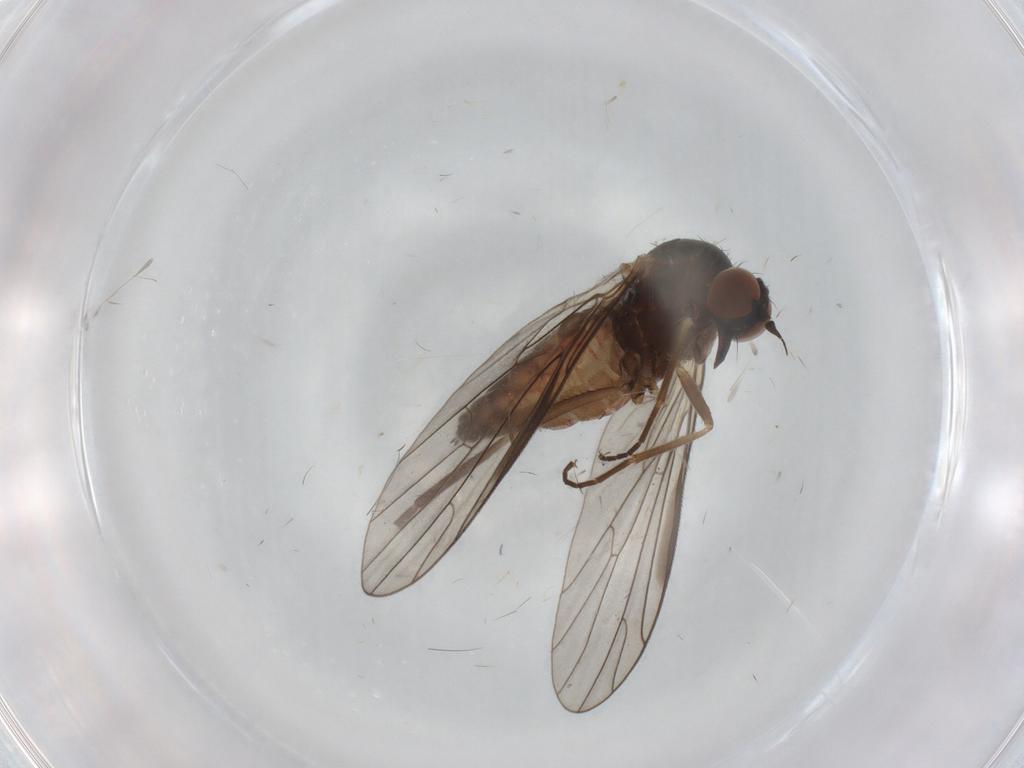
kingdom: Animalia
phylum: Arthropoda
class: Insecta
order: Diptera
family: Empididae
